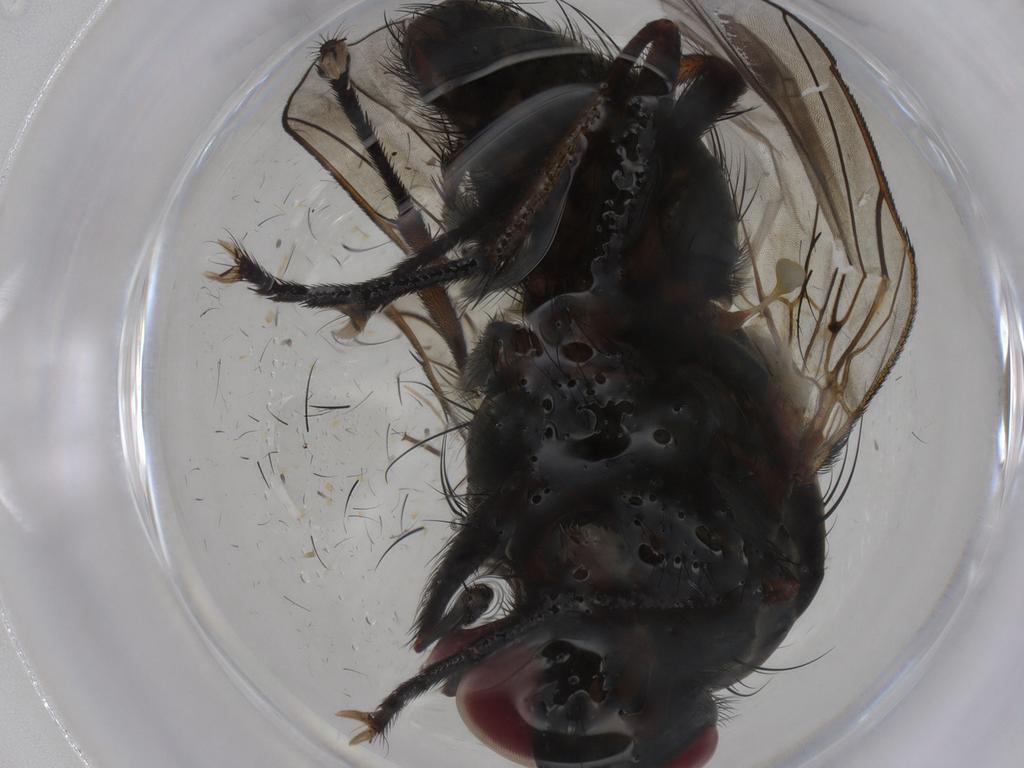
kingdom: Animalia
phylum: Arthropoda
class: Insecta
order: Diptera
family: Anthomyiidae
